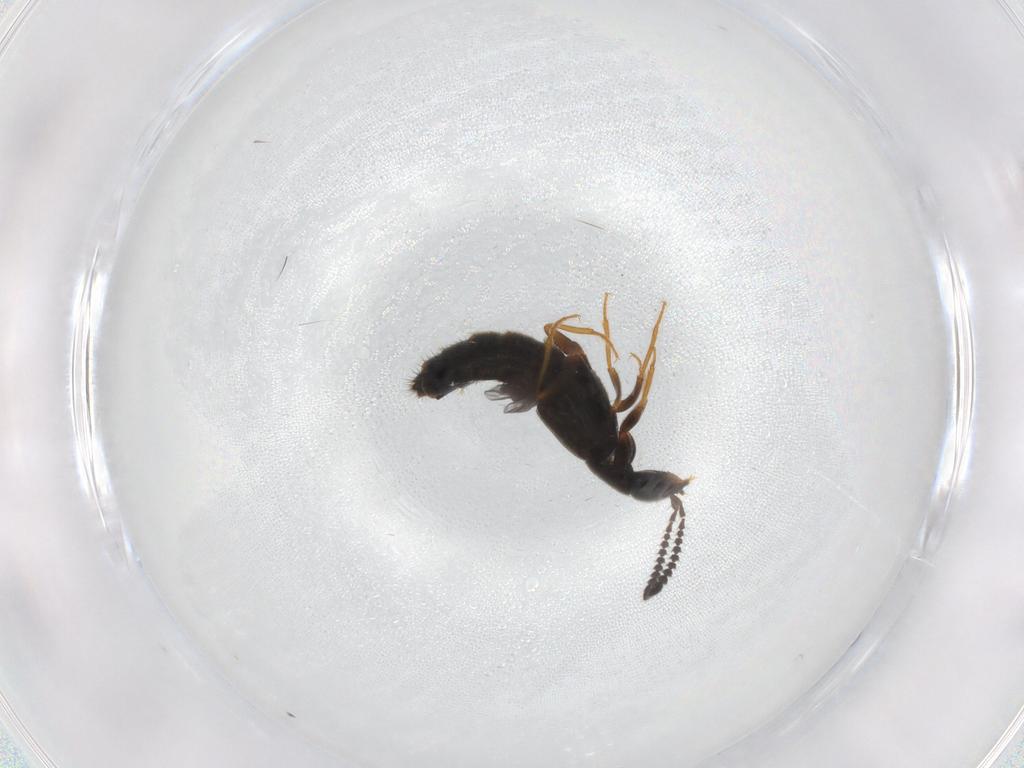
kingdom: Animalia
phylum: Arthropoda
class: Insecta
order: Coleoptera
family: Staphylinidae
